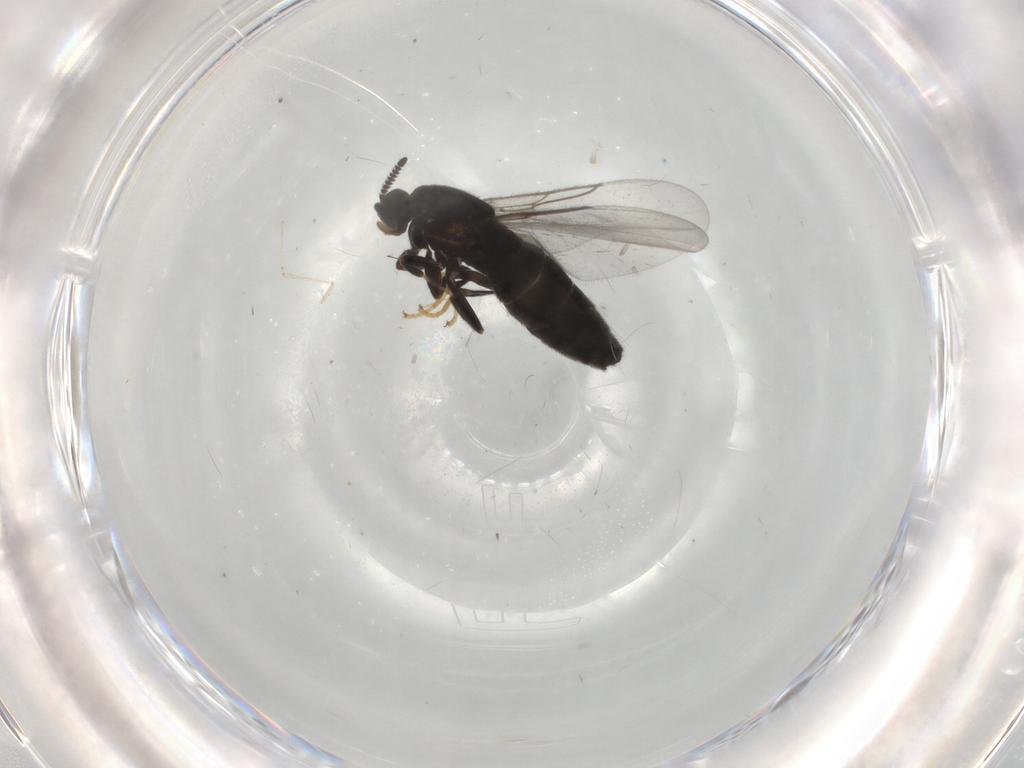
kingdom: Animalia
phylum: Arthropoda
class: Insecta
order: Diptera
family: Scatopsidae
